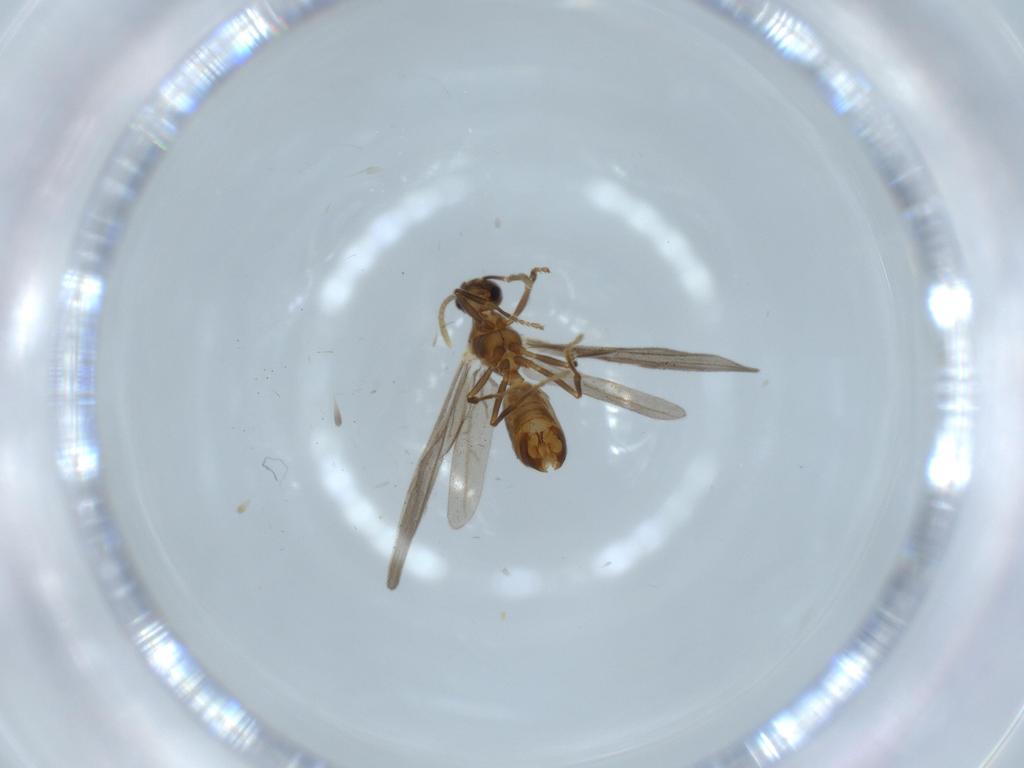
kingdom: Animalia
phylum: Arthropoda
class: Insecta
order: Hymenoptera
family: Formicidae
